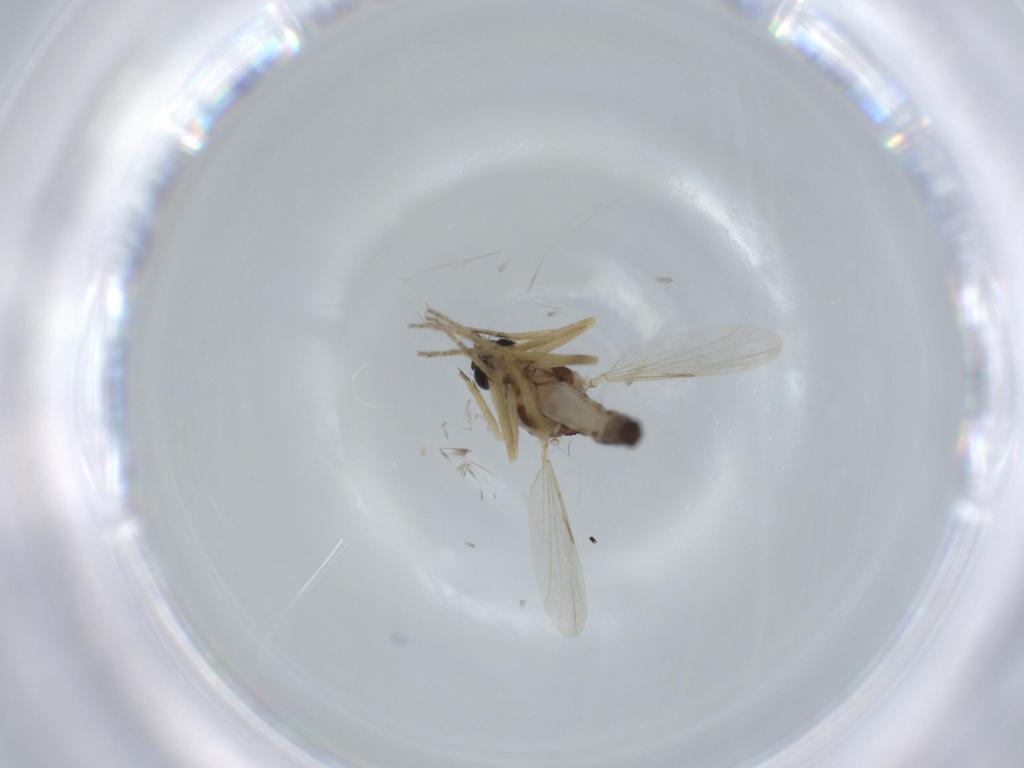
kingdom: Animalia
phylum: Arthropoda
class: Insecta
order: Diptera
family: Ceratopogonidae
